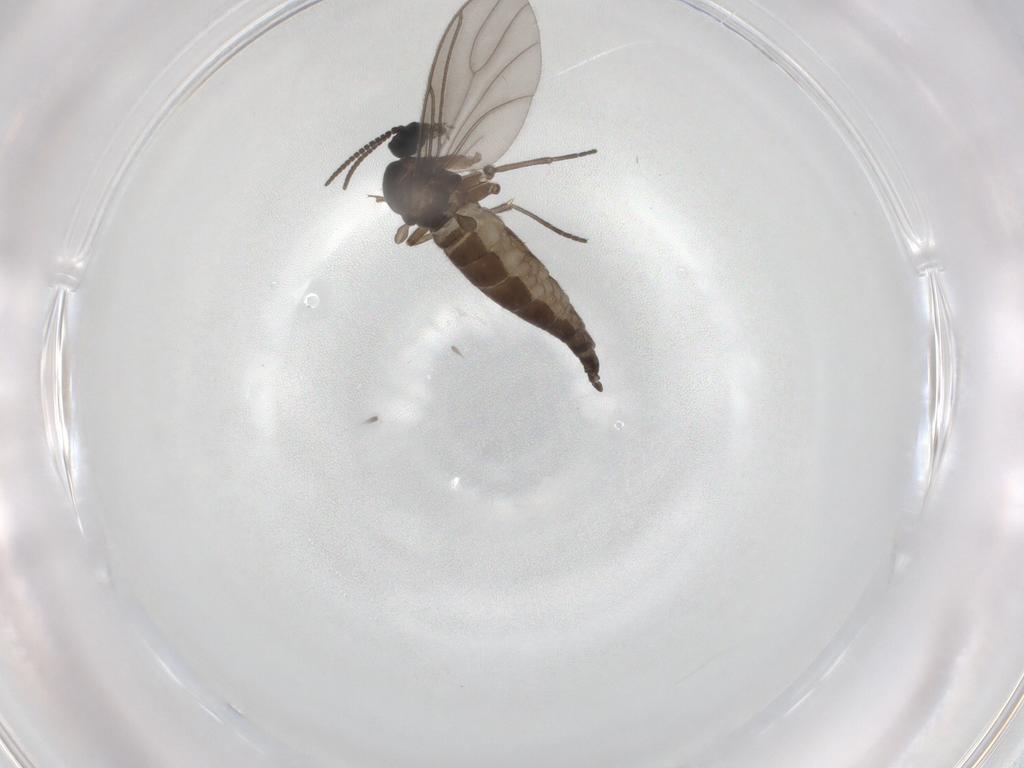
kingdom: Animalia
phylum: Arthropoda
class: Insecta
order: Diptera
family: Sciaridae
